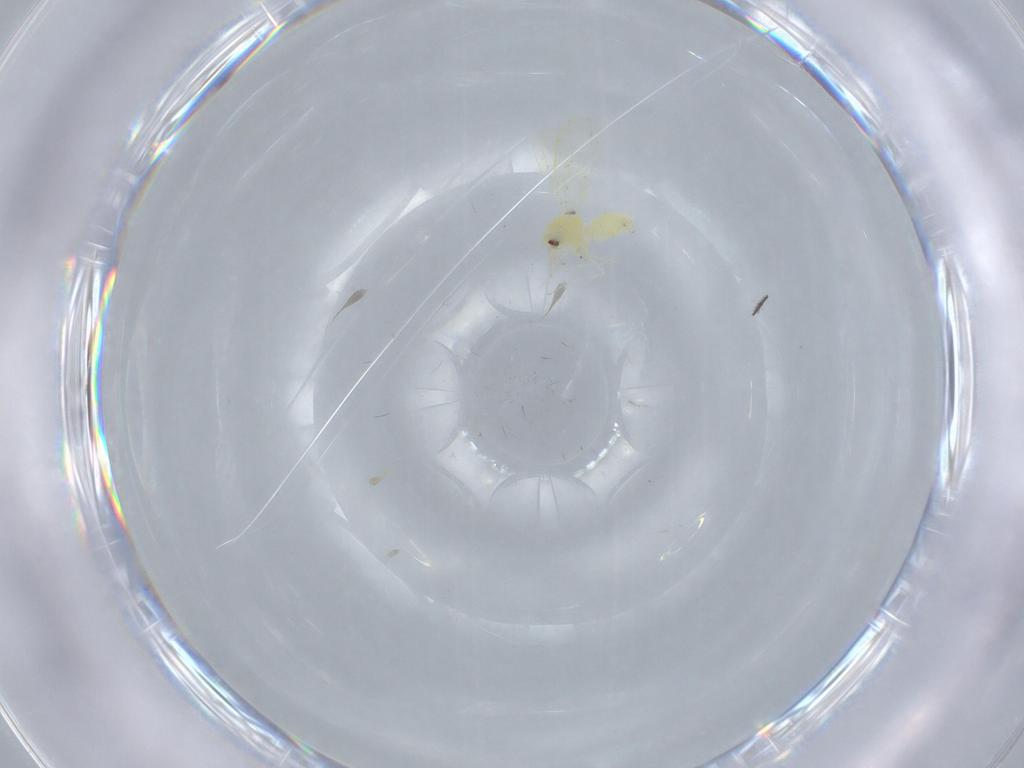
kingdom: Animalia
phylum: Arthropoda
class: Insecta
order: Hemiptera
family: Aleyrodidae
